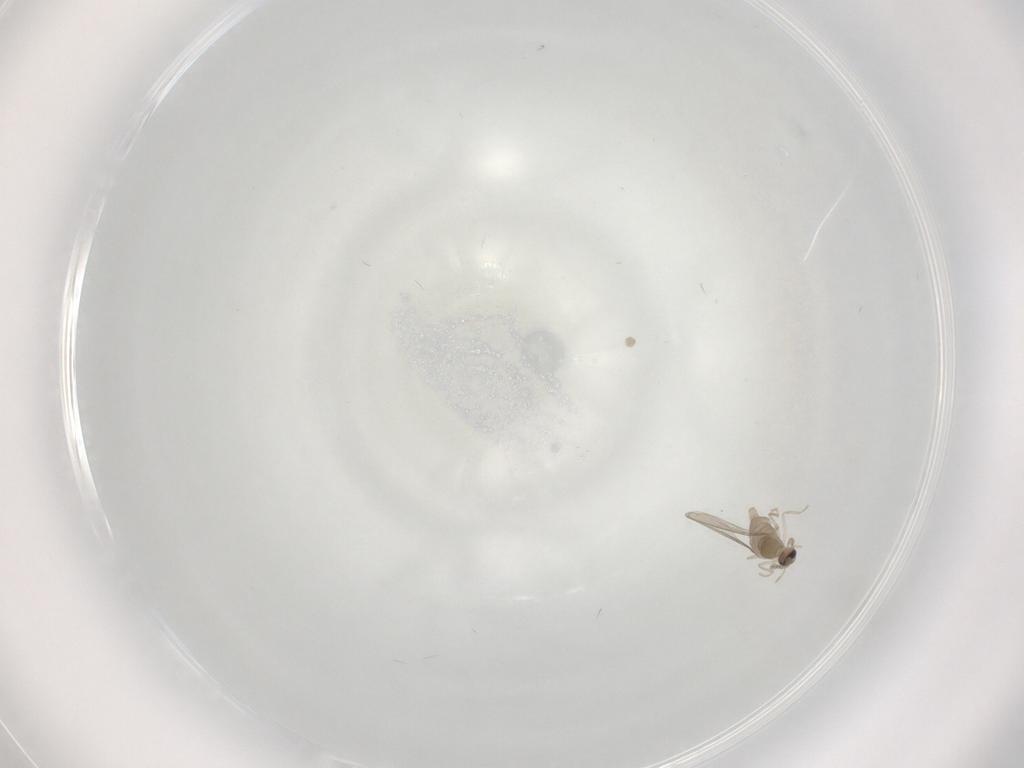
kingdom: Animalia
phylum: Arthropoda
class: Insecta
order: Diptera
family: Cecidomyiidae
